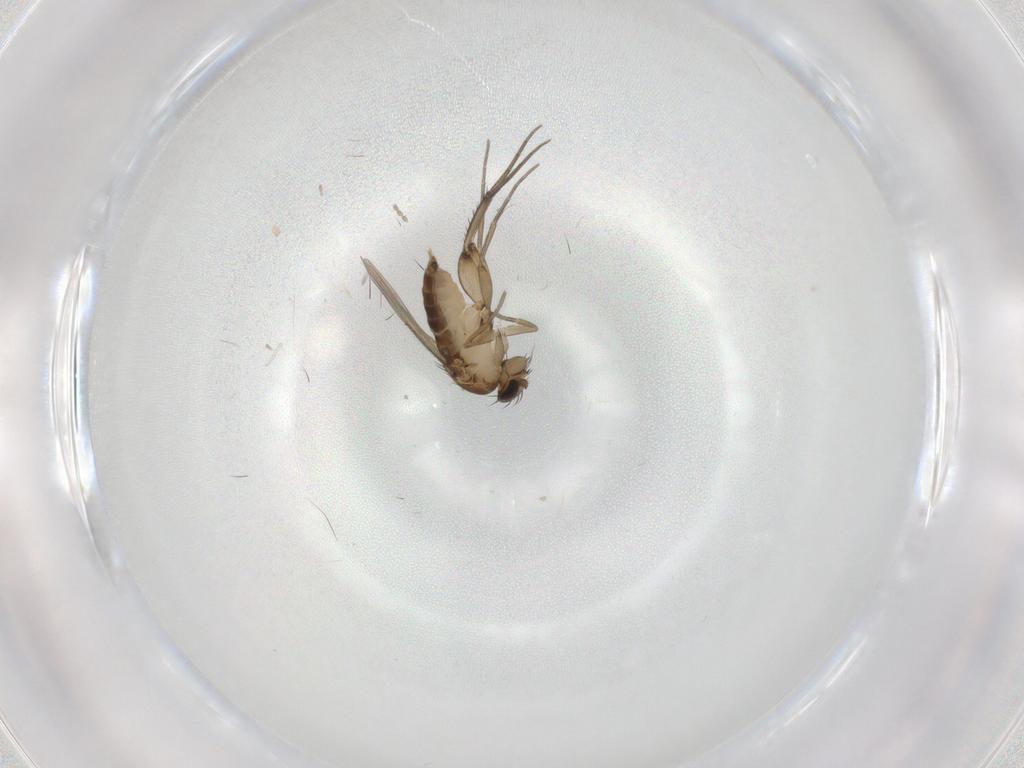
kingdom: Animalia
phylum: Arthropoda
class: Insecta
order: Diptera
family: Phoridae
